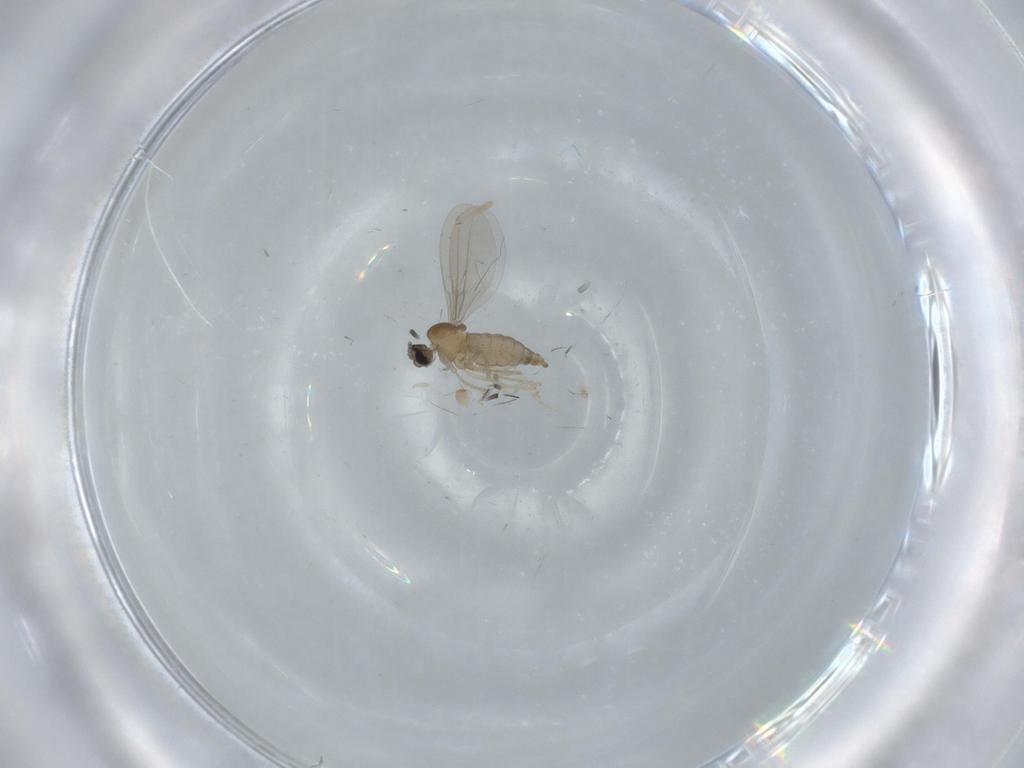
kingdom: Animalia
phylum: Arthropoda
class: Insecta
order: Diptera
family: Cecidomyiidae
